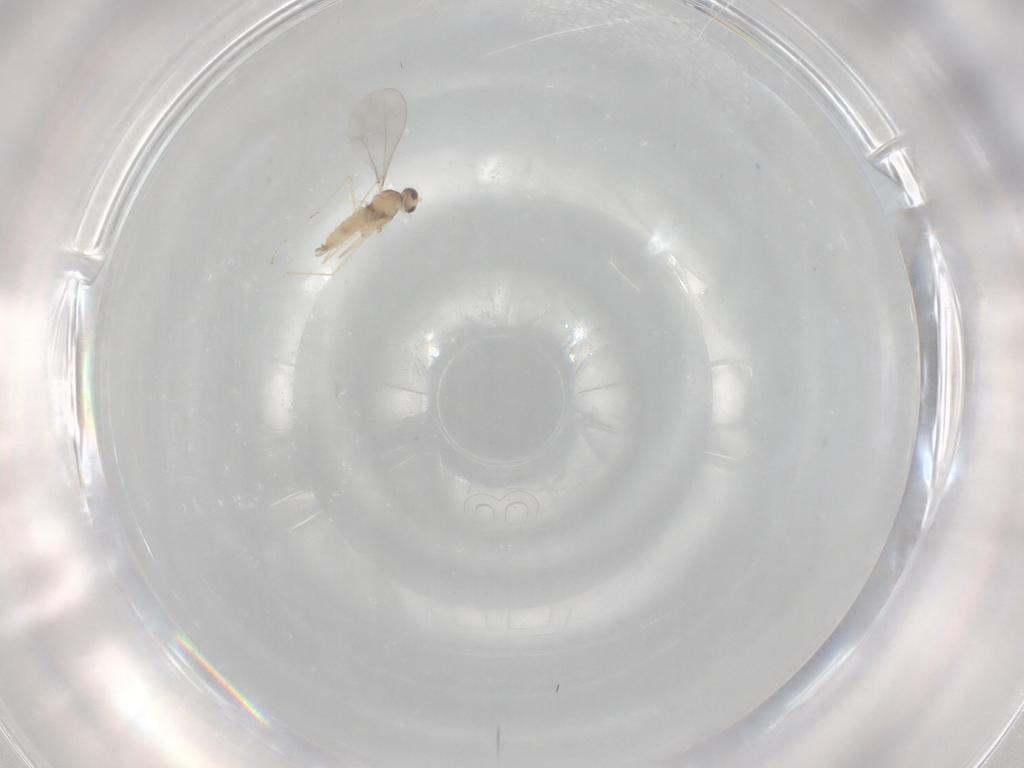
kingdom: Animalia
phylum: Arthropoda
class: Insecta
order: Diptera
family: Cecidomyiidae
